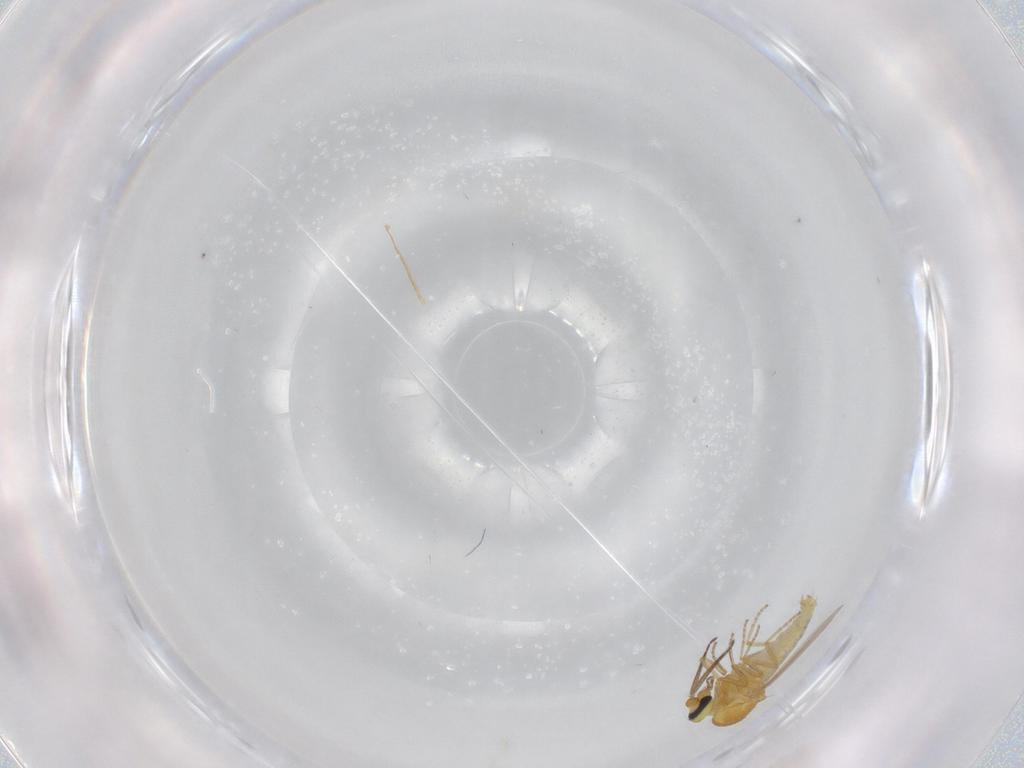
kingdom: Animalia
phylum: Arthropoda
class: Insecta
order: Diptera
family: Ceratopogonidae
